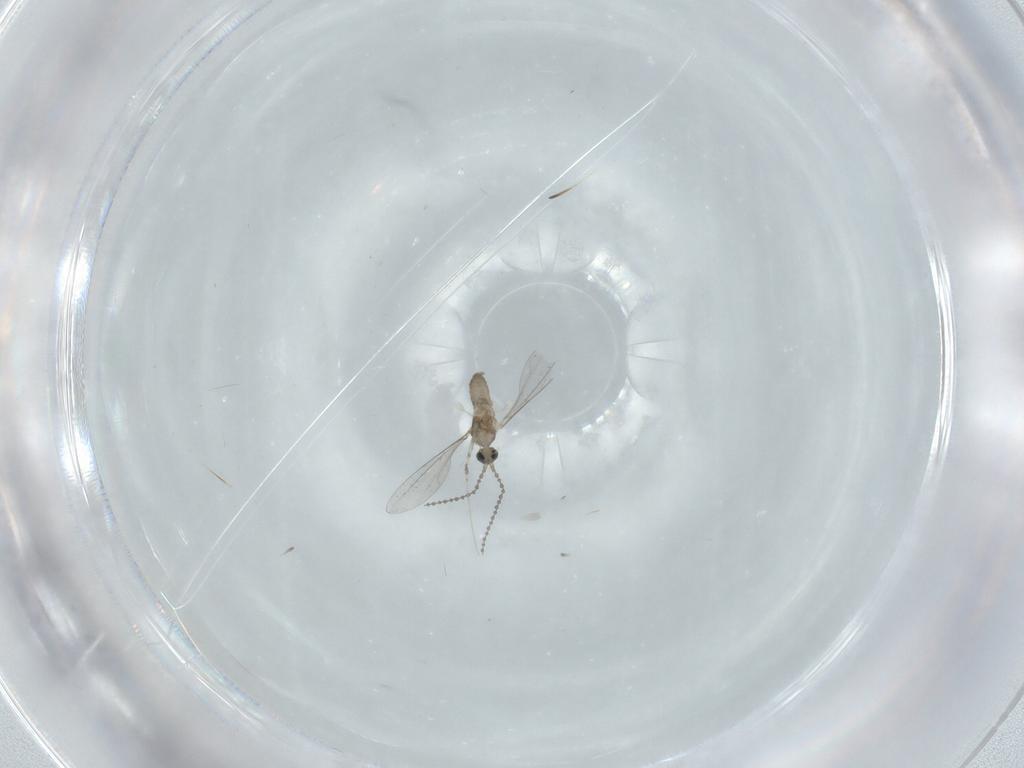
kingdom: Animalia
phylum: Arthropoda
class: Insecta
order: Diptera
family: Cecidomyiidae
